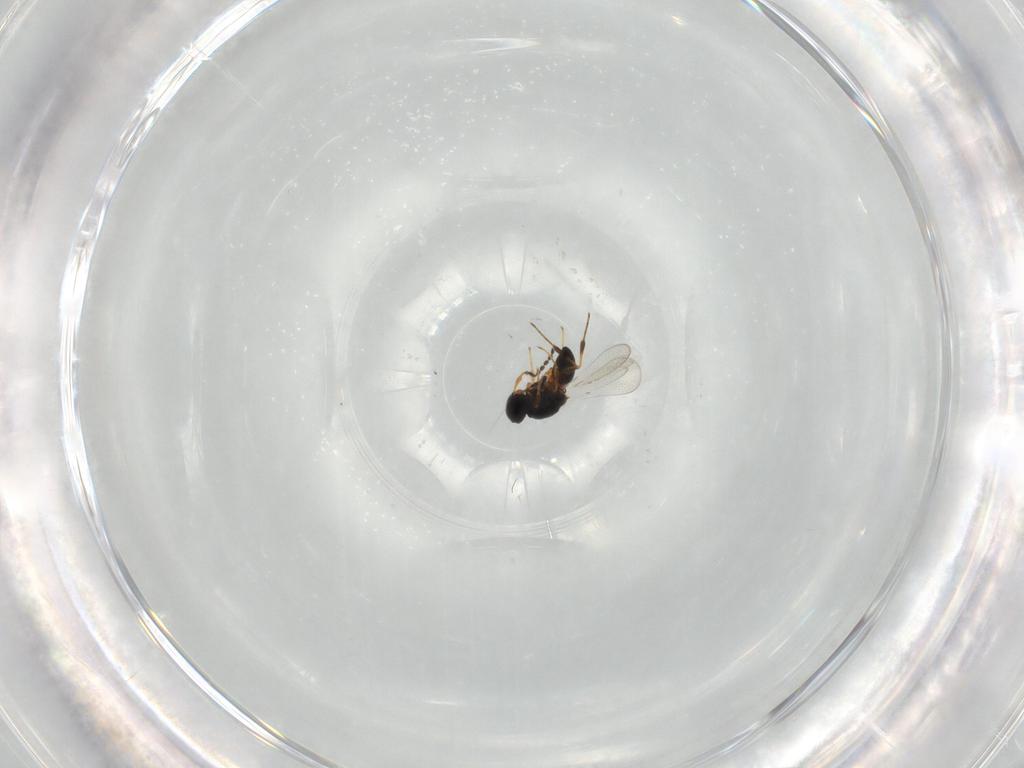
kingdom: Animalia
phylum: Arthropoda
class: Insecta
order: Hymenoptera
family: Platygastridae
